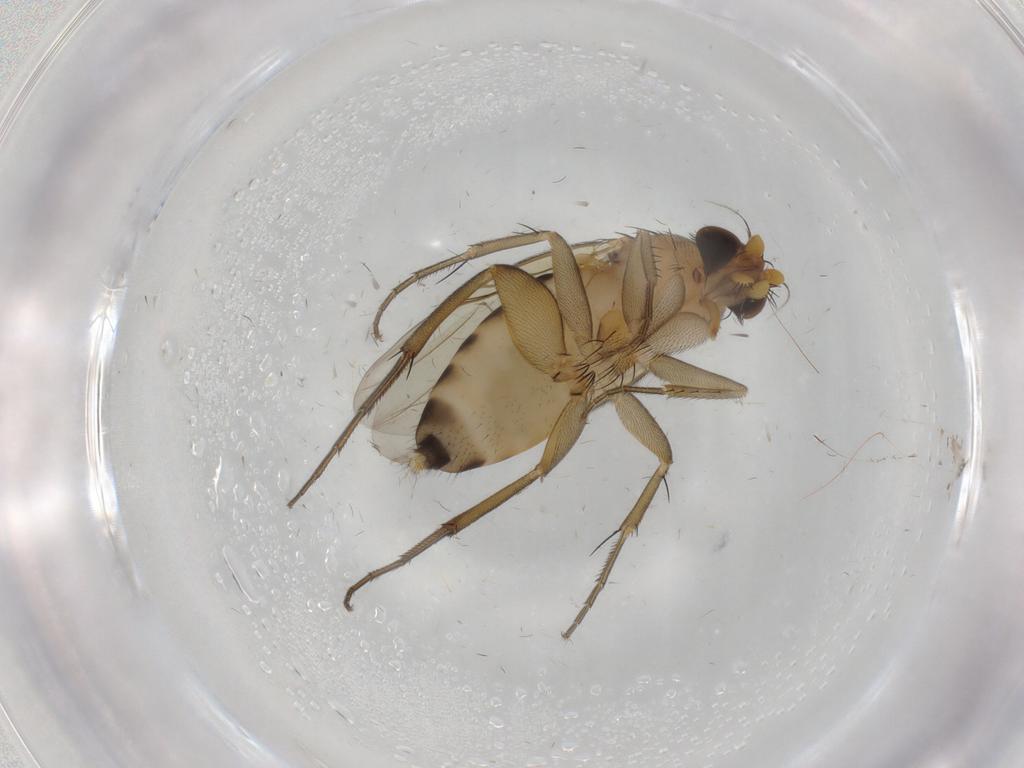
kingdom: Animalia
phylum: Arthropoda
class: Insecta
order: Diptera
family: Phoridae
